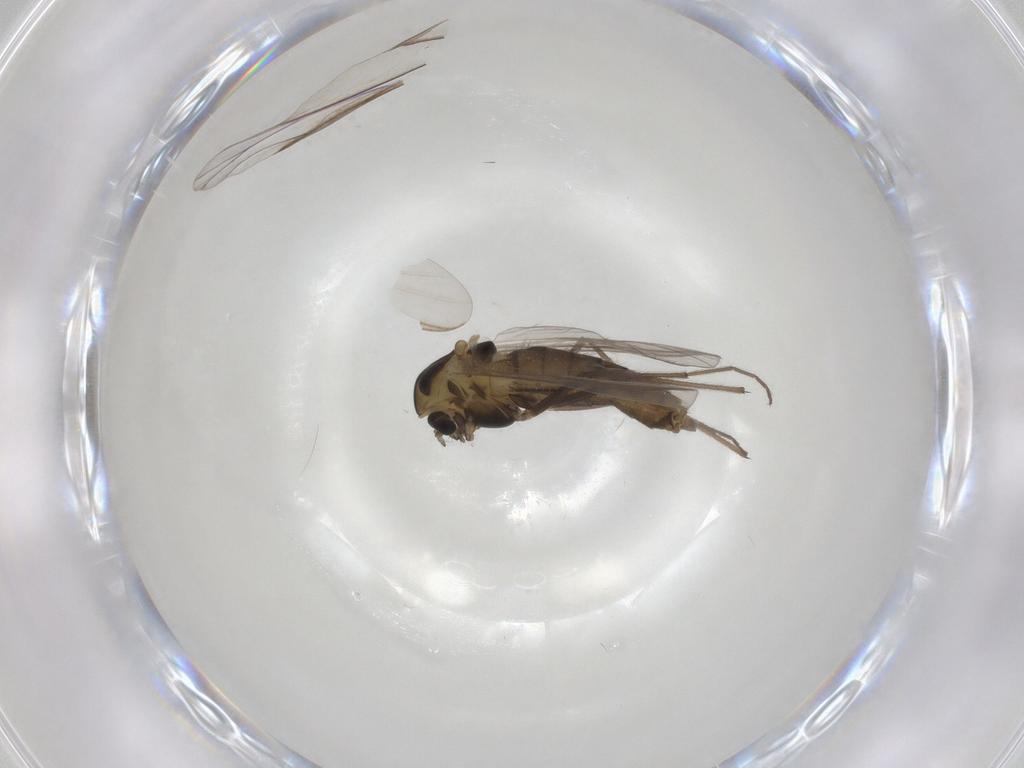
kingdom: Animalia
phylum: Arthropoda
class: Insecta
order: Diptera
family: Chironomidae
